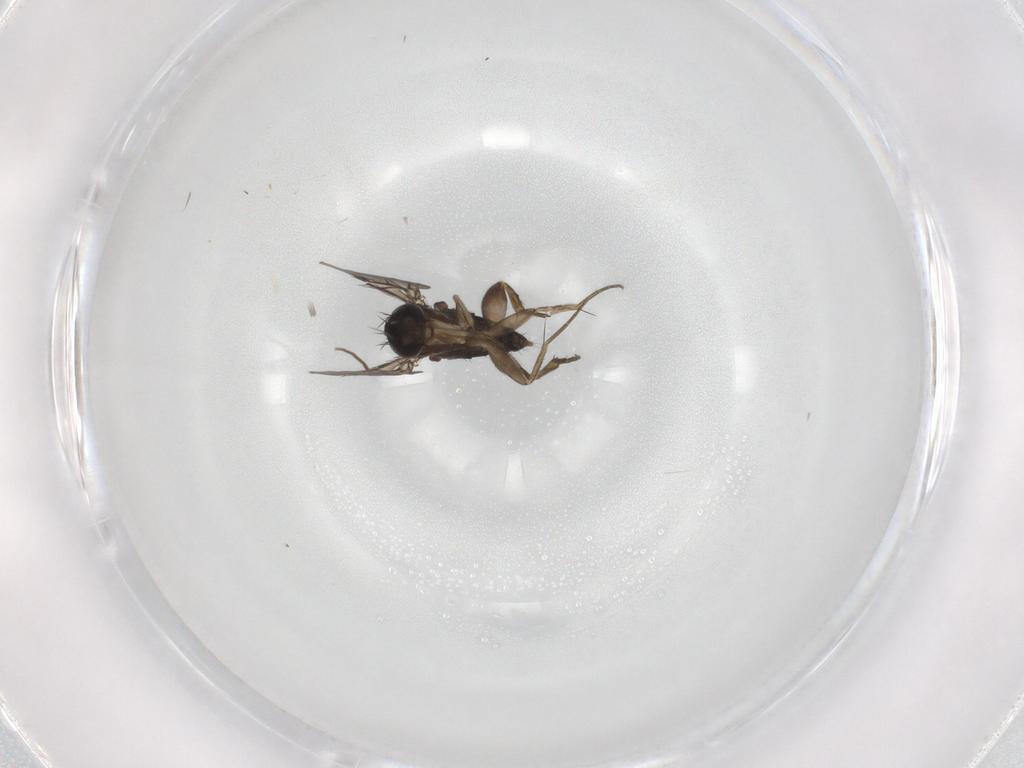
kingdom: Animalia
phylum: Arthropoda
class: Insecta
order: Diptera
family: Phoridae
